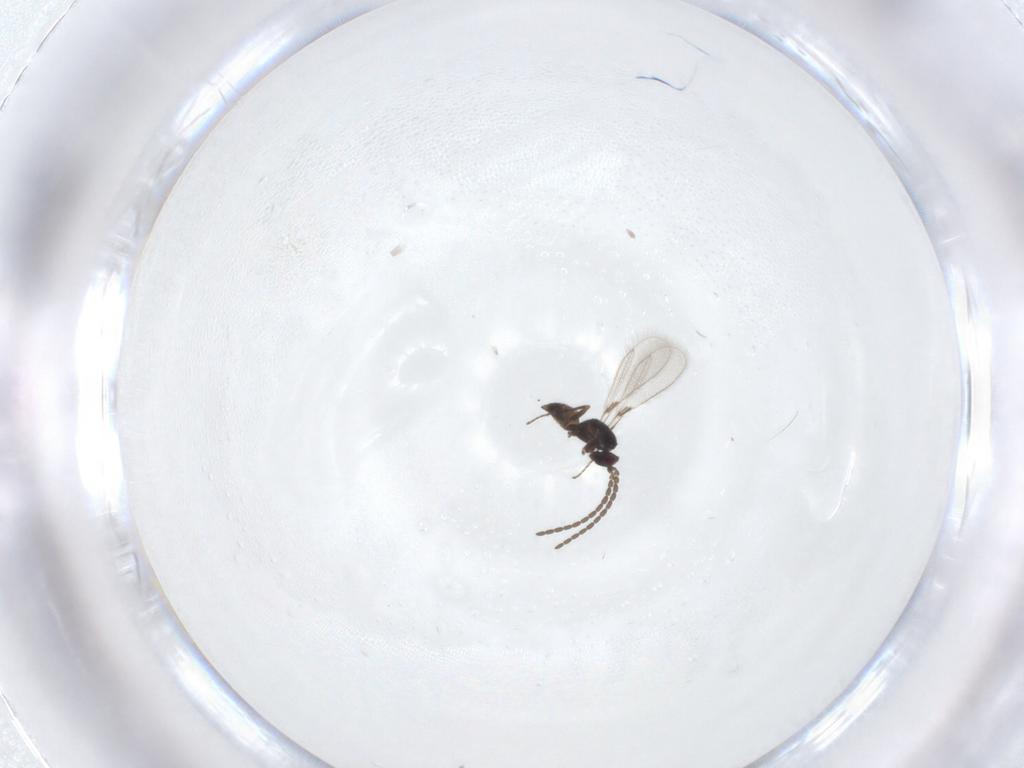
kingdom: Animalia
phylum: Arthropoda
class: Insecta
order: Hymenoptera
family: Mymaridae
